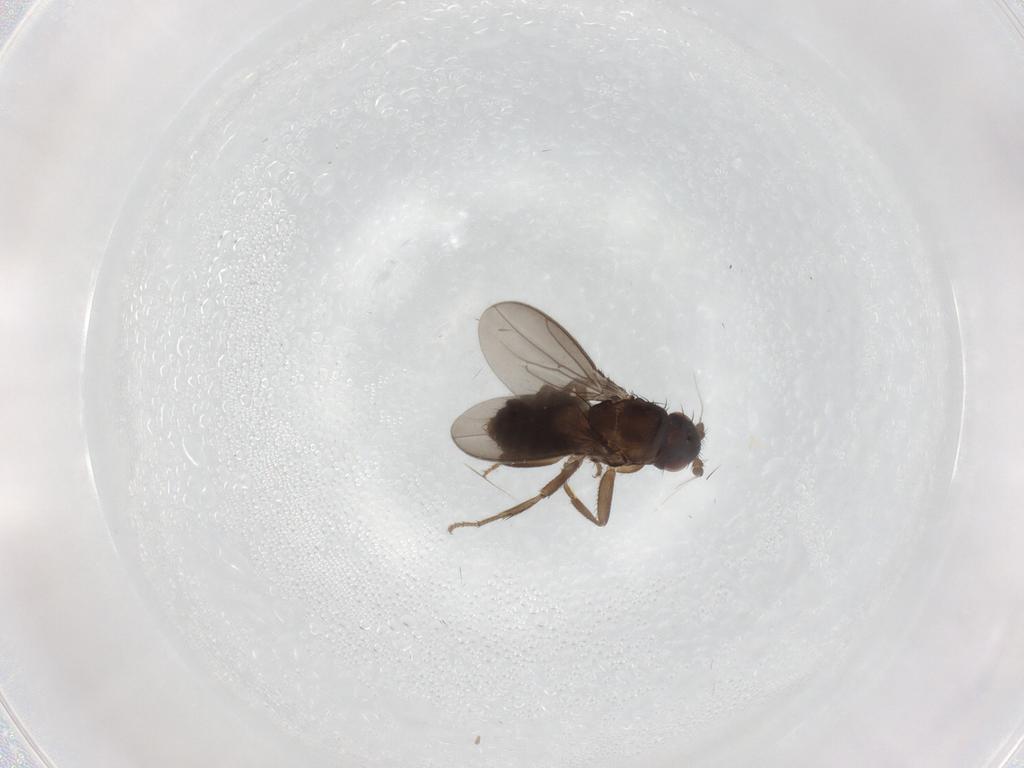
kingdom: Animalia
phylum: Arthropoda
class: Insecta
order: Diptera
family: Sphaeroceridae
